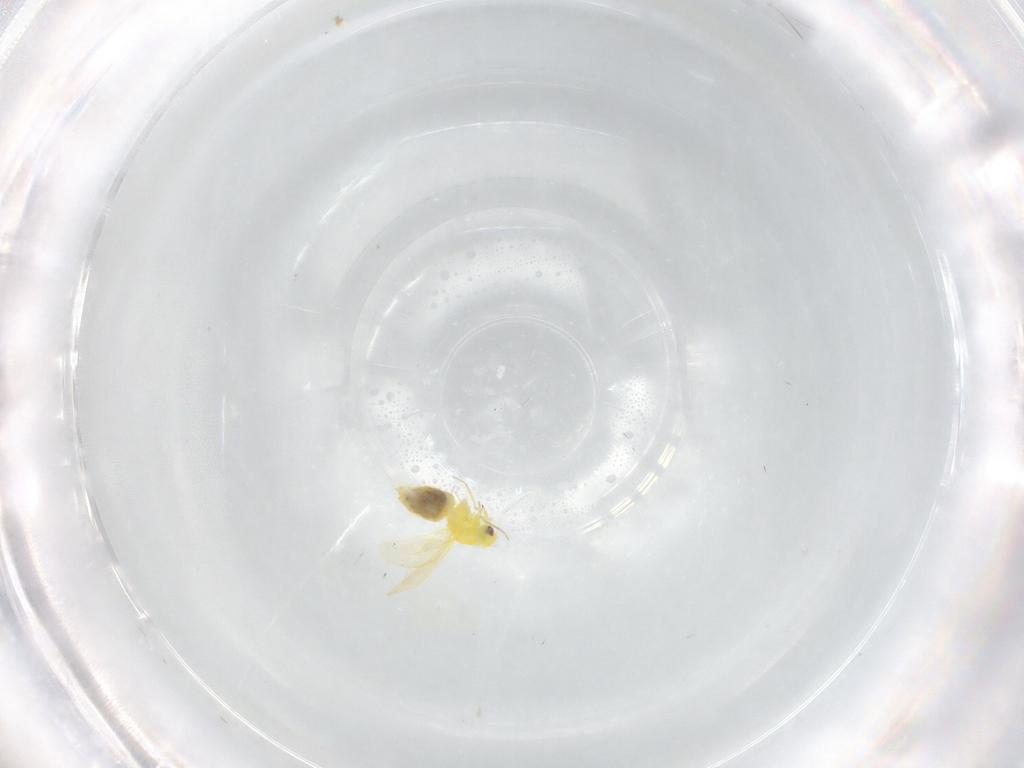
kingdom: Animalia
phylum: Arthropoda
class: Insecta
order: Hemiptera
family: Aleyrodidae
